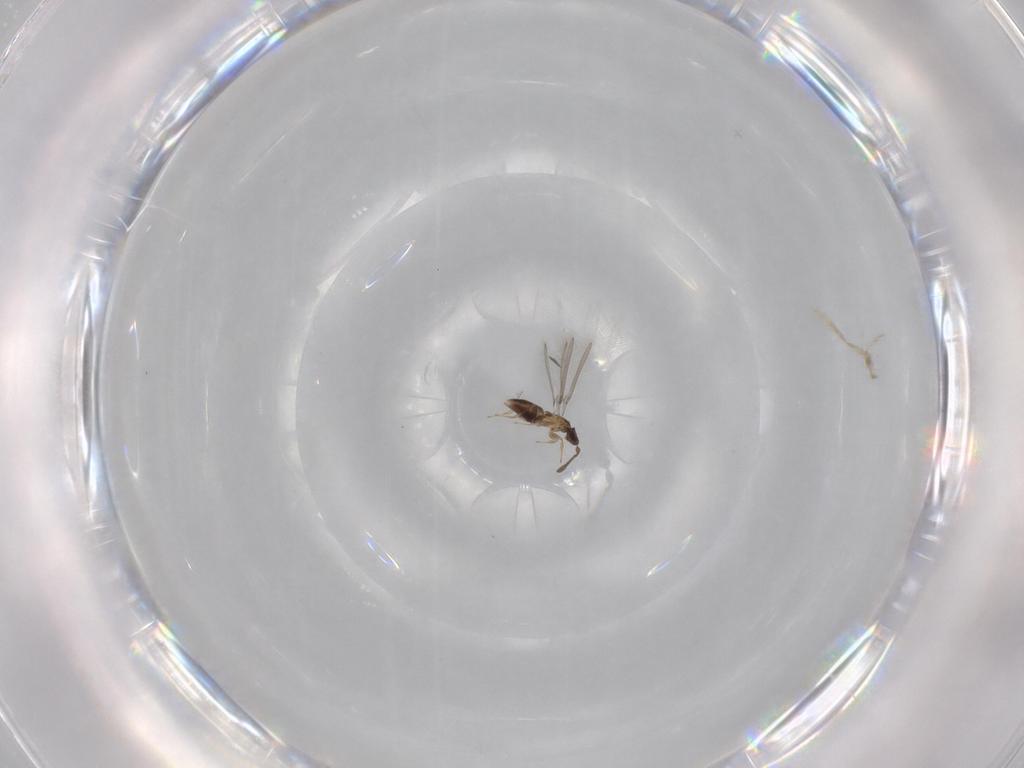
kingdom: Animalia
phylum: Arthropoda
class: Insecta
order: Hymenoptera
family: Mymaridae
